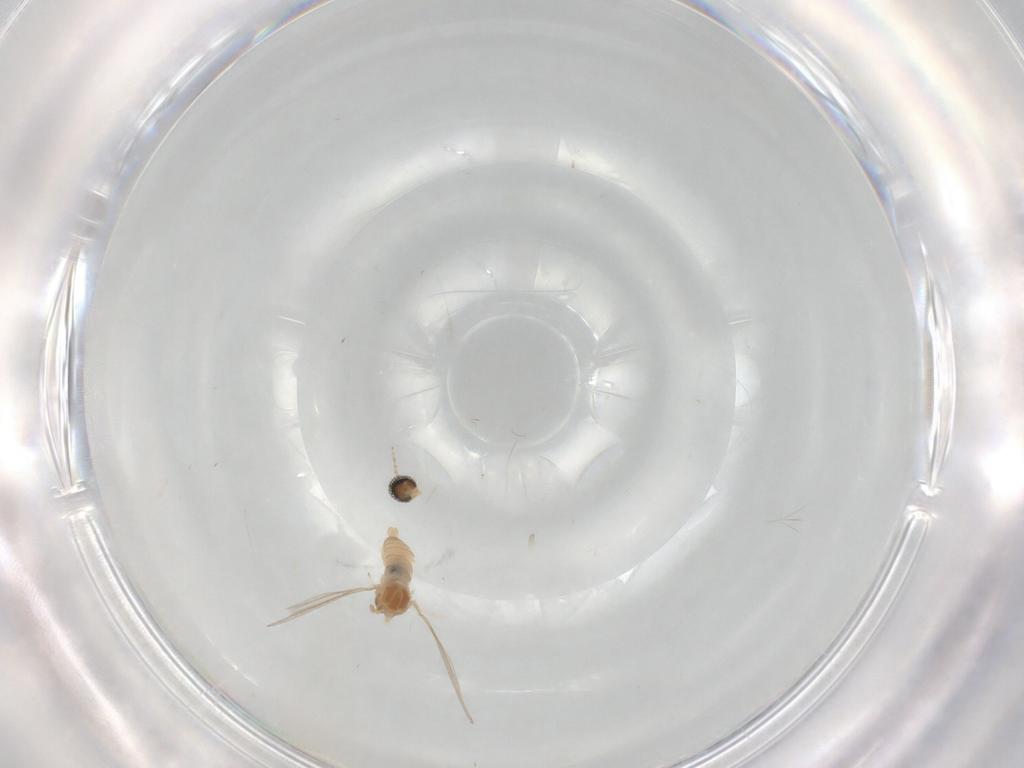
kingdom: Animalia
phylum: Arthropoda
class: Insecta
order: Diptera
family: Cecidomyiidae
